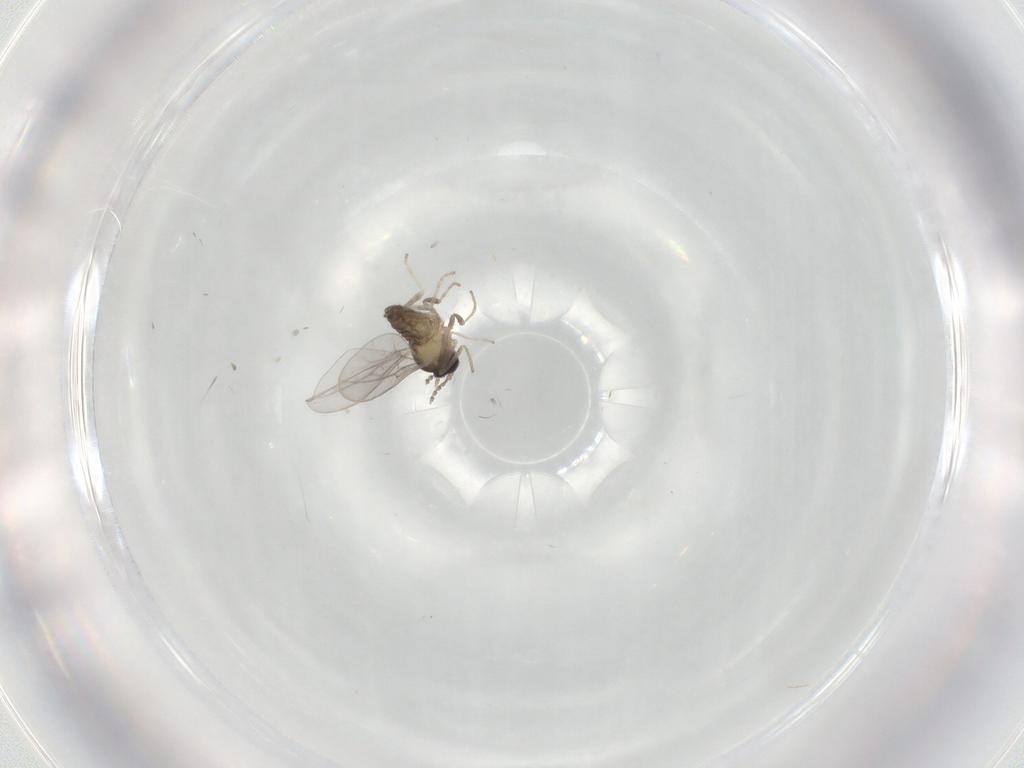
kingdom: Animalia
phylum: Arthropoda
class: Insecta
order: Diptera
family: Cecidomyiidae
